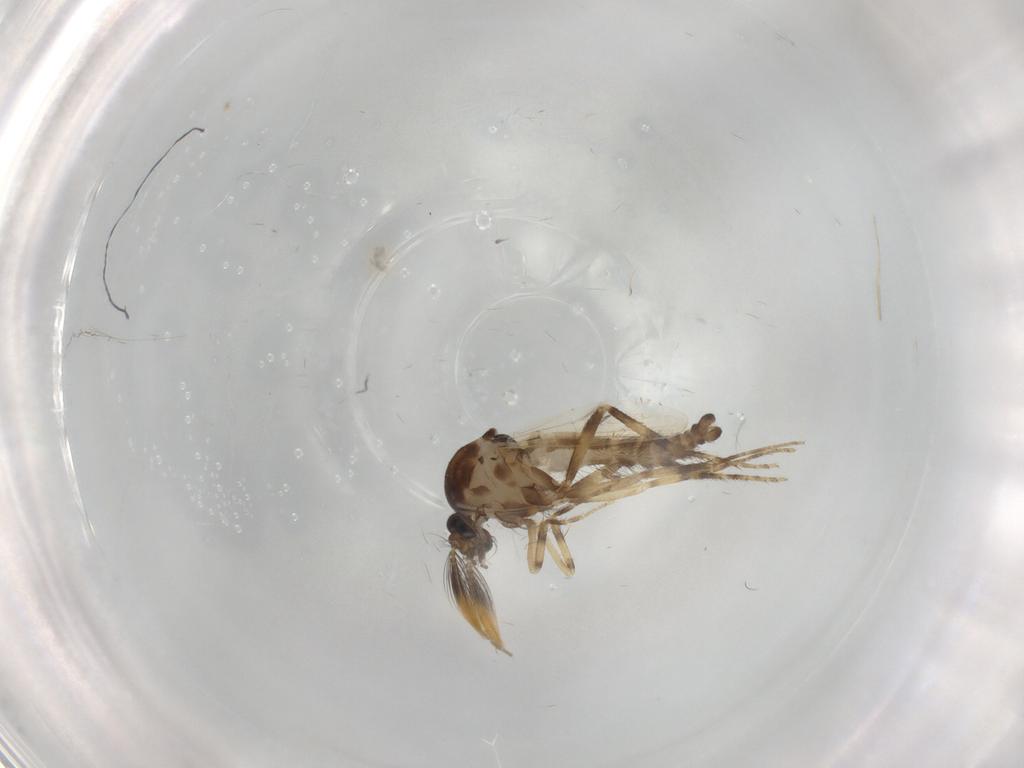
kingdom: Animalia
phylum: Arthropoda
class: Insecta
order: Diptera
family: Ceratopogonidae
